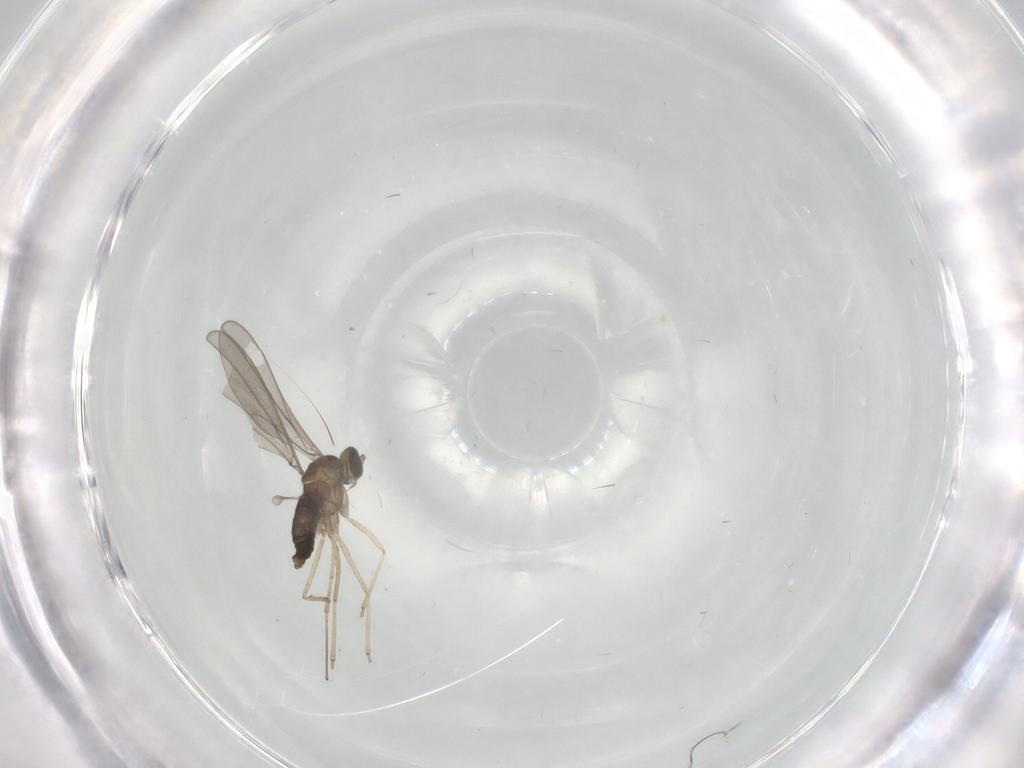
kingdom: Animalia
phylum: Arthropoda
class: Insecta
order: Diptera
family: Cecidomyiidae
